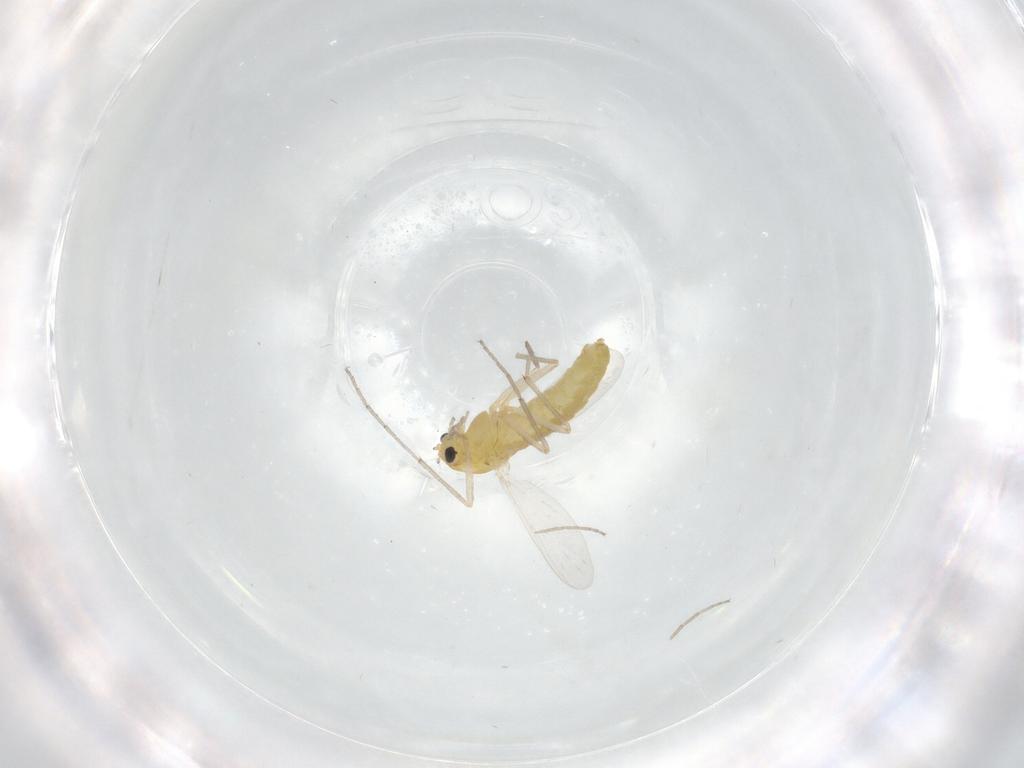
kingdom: Animalia
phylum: Arthropoda
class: Insecta
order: Diptera
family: Chironomidae
